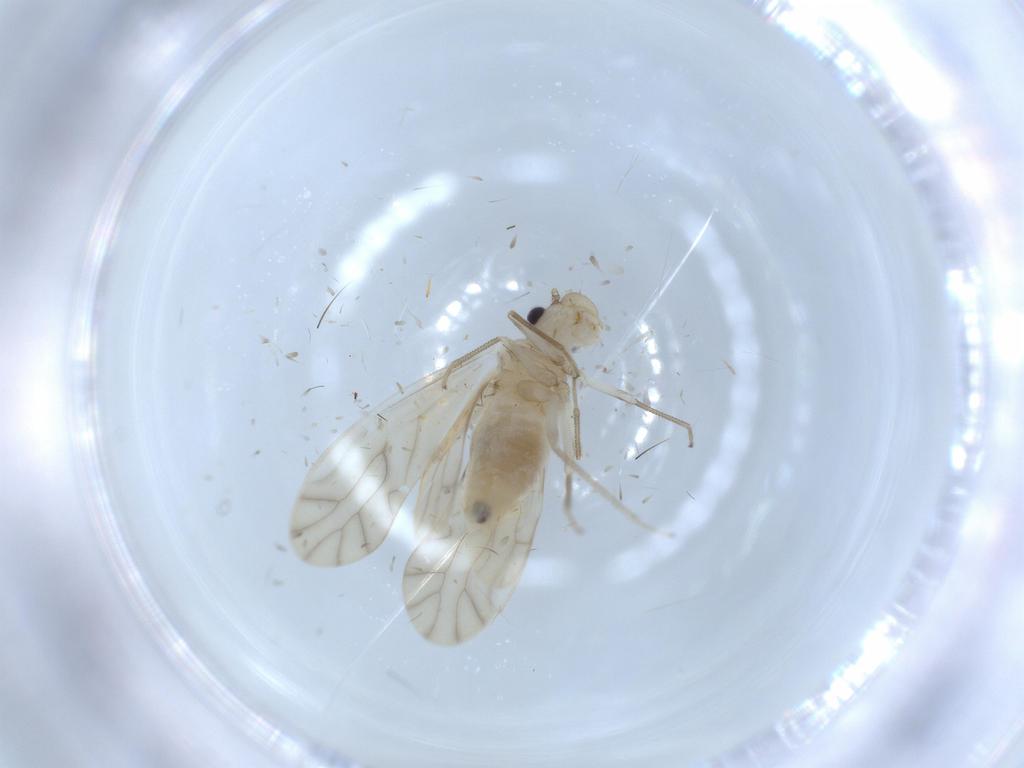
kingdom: Animalia
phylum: Arthropoda
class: Insecta
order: Psocodea
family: Caeciliusidae
